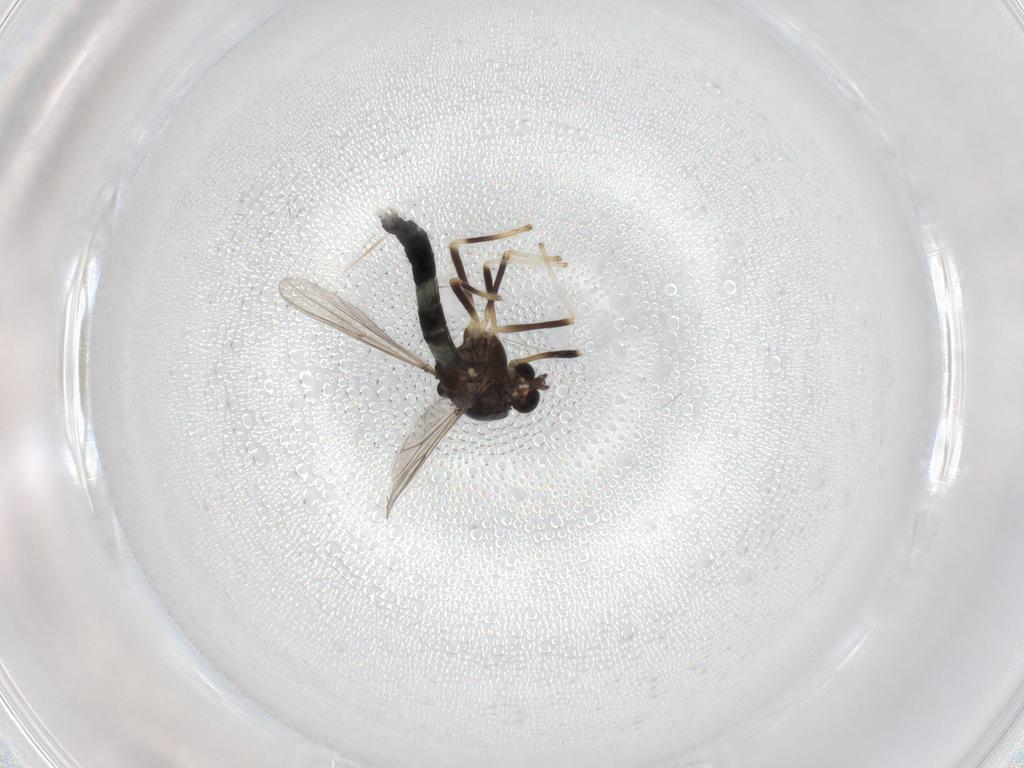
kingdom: Animalia
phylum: Arthropoda
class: Insecta
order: Diptera
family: Chironomidae
